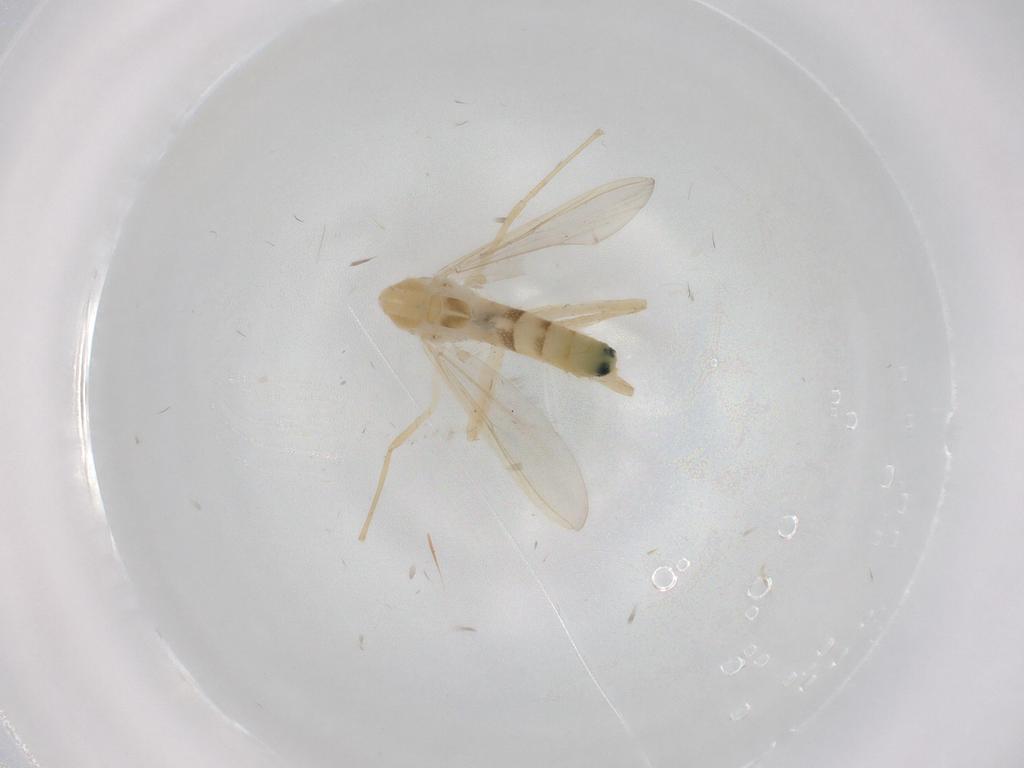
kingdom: Animalia
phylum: Arthropoda
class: Insecta
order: Diptera
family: Chironomidae
